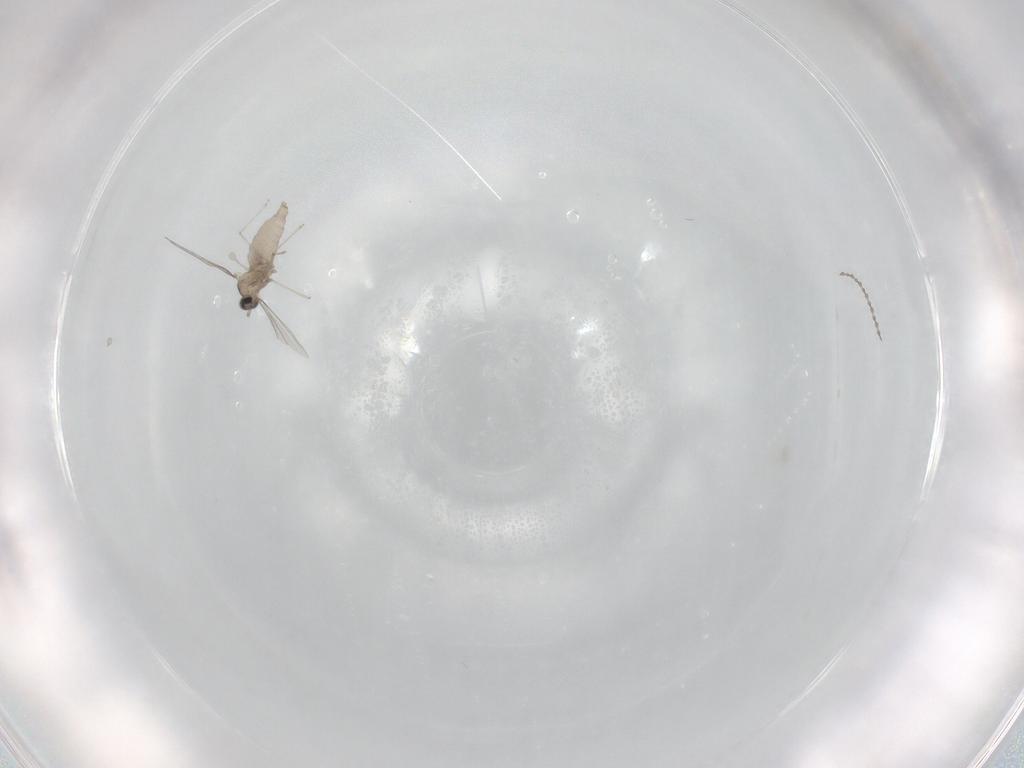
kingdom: Animalia
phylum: Arthropoda
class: Insecta
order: Diptera
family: Cecidomyiidae
